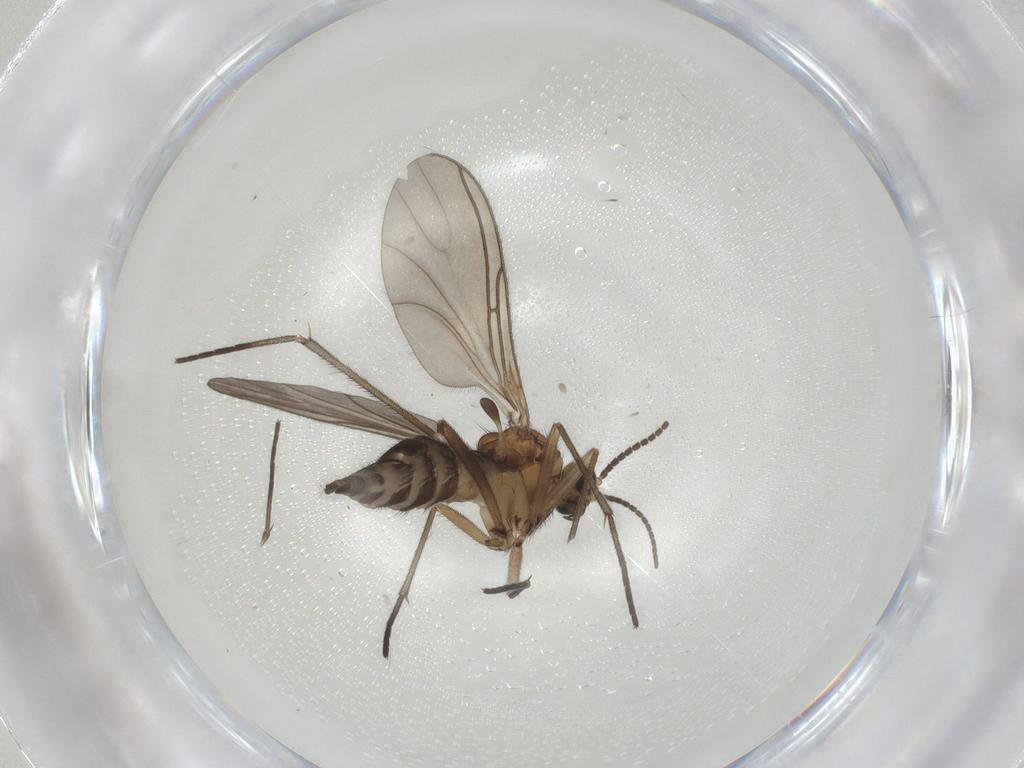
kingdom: Animalia
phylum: Arthropoda
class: Insecta
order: Diptera
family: Sciaridae
